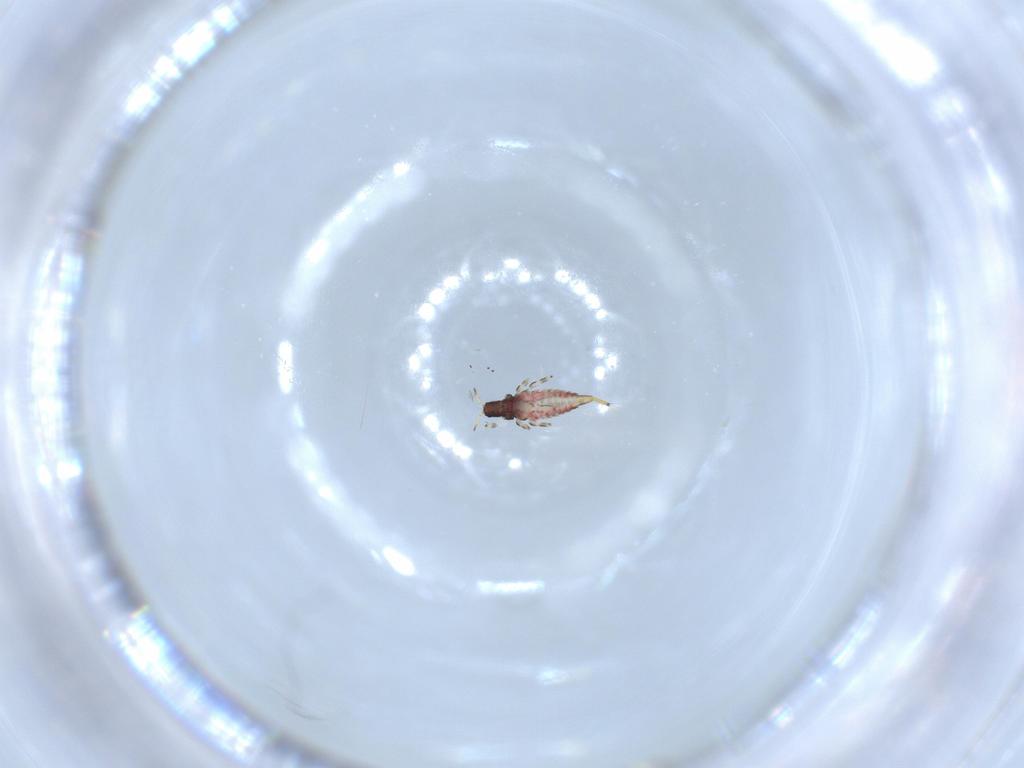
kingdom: Animalia
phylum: Arthropoda
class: Insecta
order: Thysanoptera
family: Phlaeothripidae
